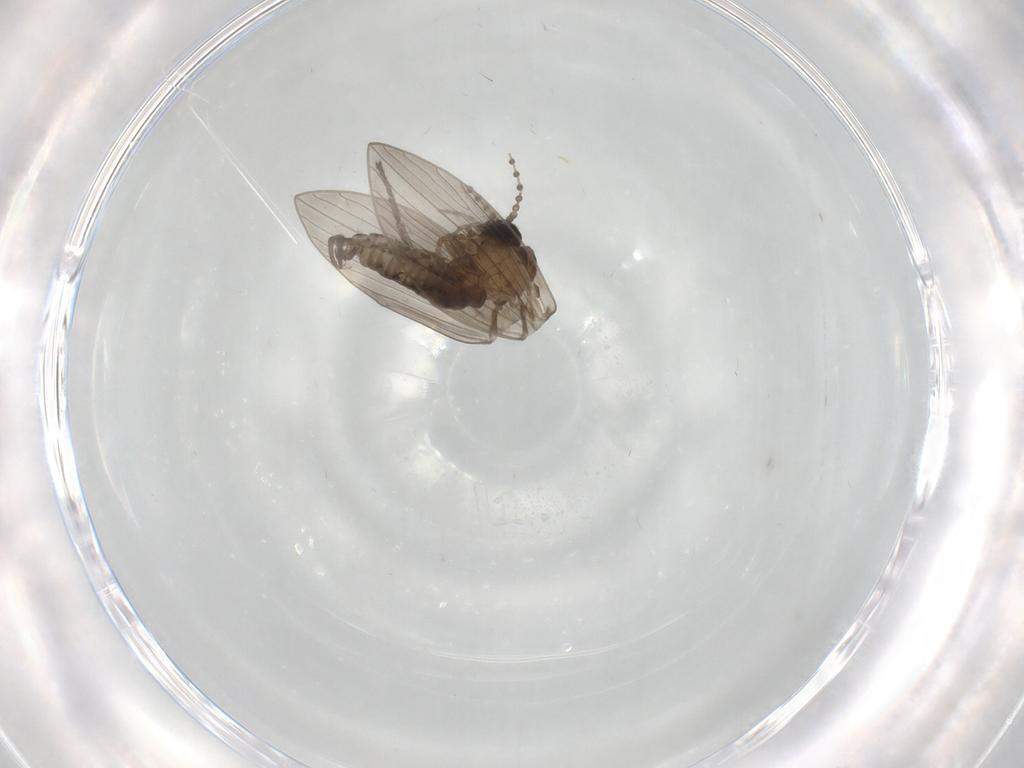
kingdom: Animalia
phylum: Arthropoda
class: Insecta
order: Diptera
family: Psychodidae
